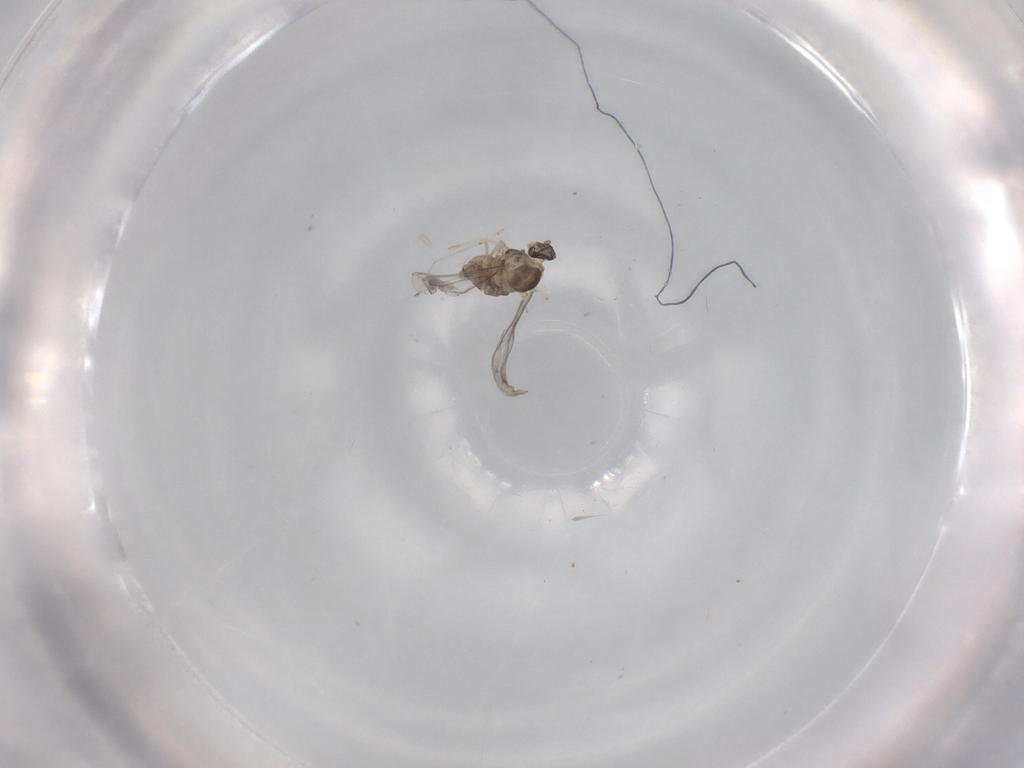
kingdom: Animalia
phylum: Arthropoda
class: Insecta
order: Diptera
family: Cecidomyiidae
